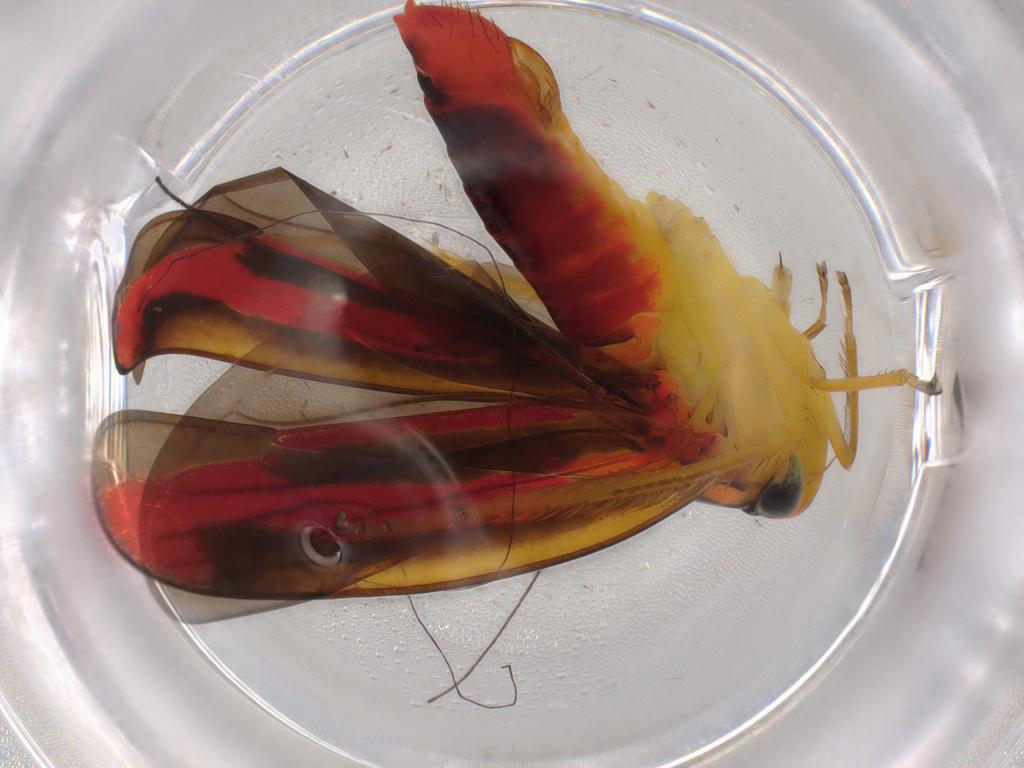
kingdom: Animalia
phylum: Arthropoda
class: Insecta
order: Hemiptera
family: Cicadellidae
